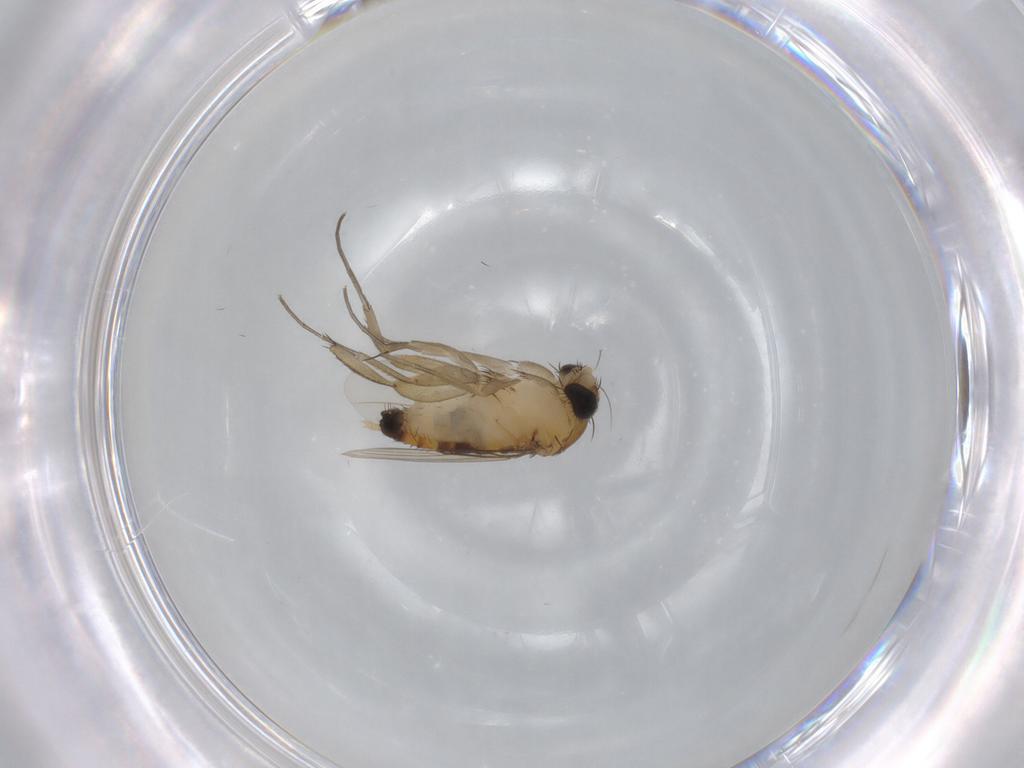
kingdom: Animalia
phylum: Arthropoda
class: Insecta
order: Diptera
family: Phoridae
